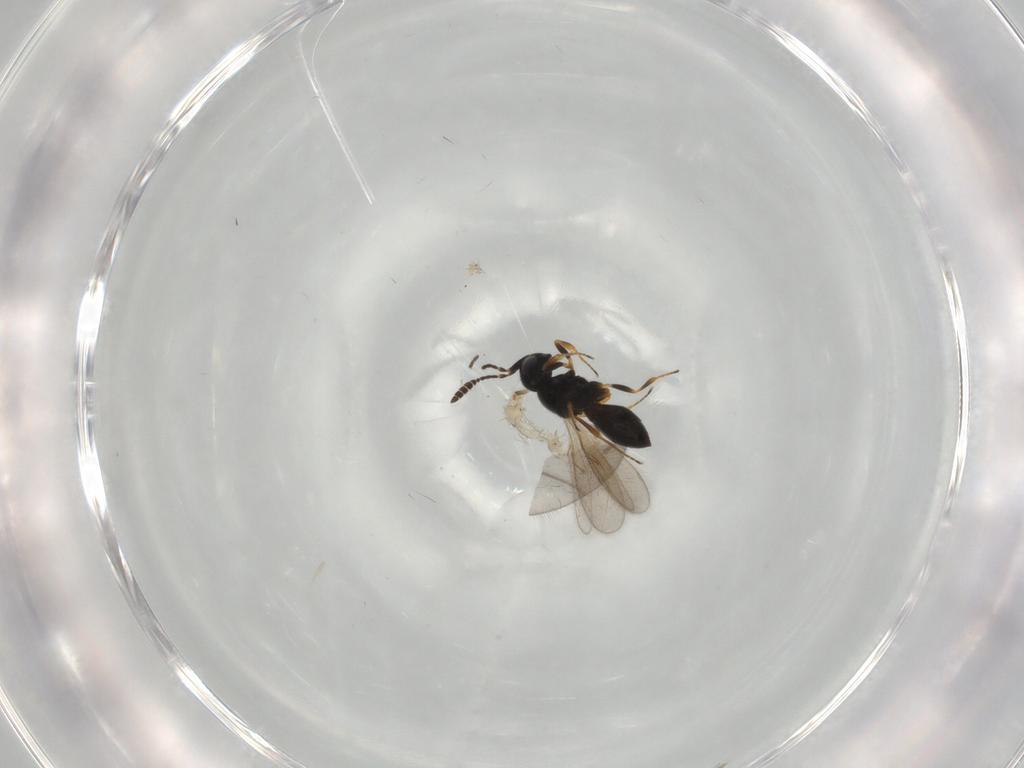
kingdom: Animalia
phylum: Arthropoda
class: Insecta
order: Hymenoptera
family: Scelionidae
